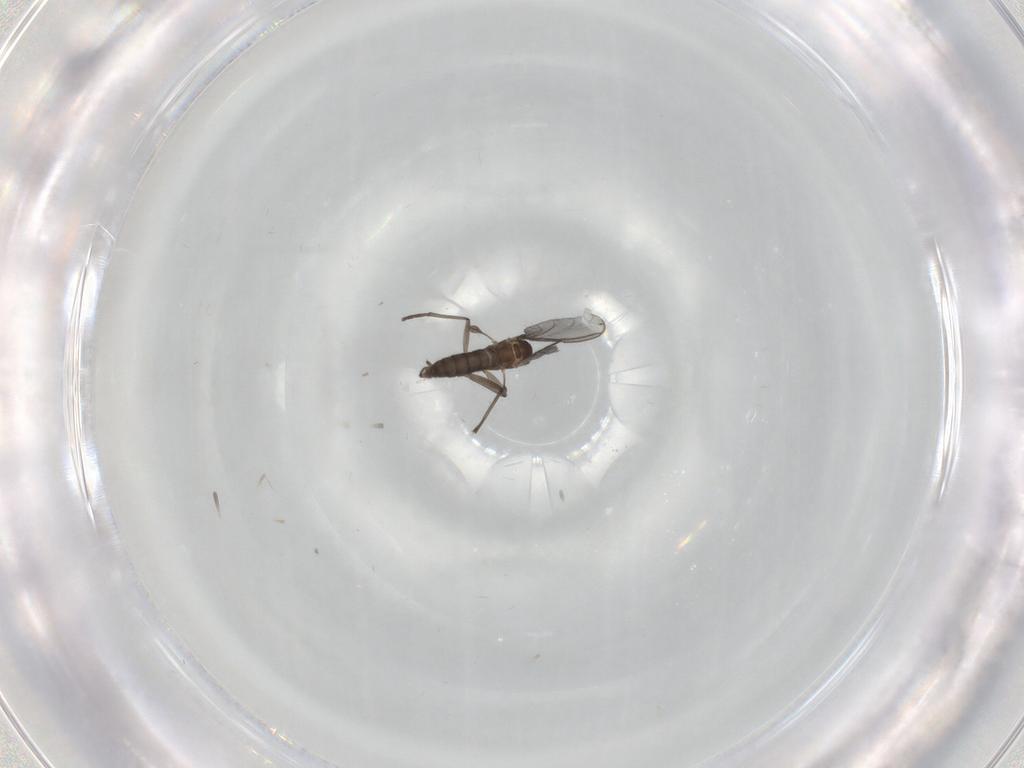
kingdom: Animalia
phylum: Arthropoda
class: Insecta
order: Diptera
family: Sciaridae
